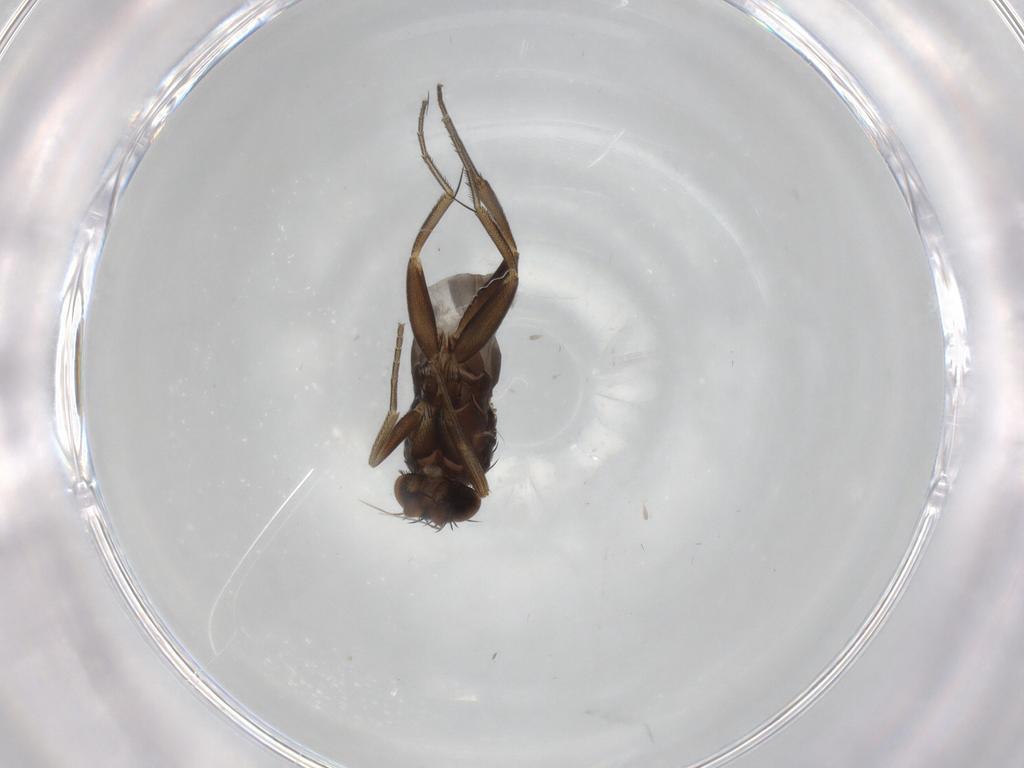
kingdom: Animalia
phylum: Arthropoda
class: Insecta
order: Diptera
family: Phoridae
